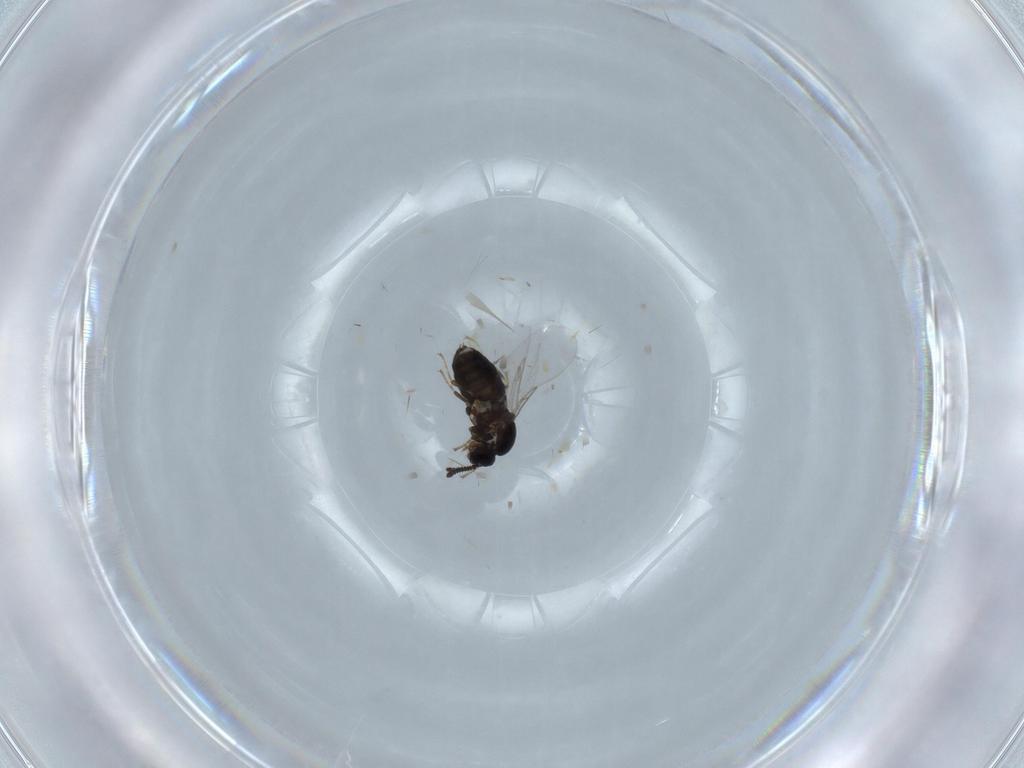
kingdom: Animalia
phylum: Arthropoda
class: Insecta
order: Diptera
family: Scatopsidae
